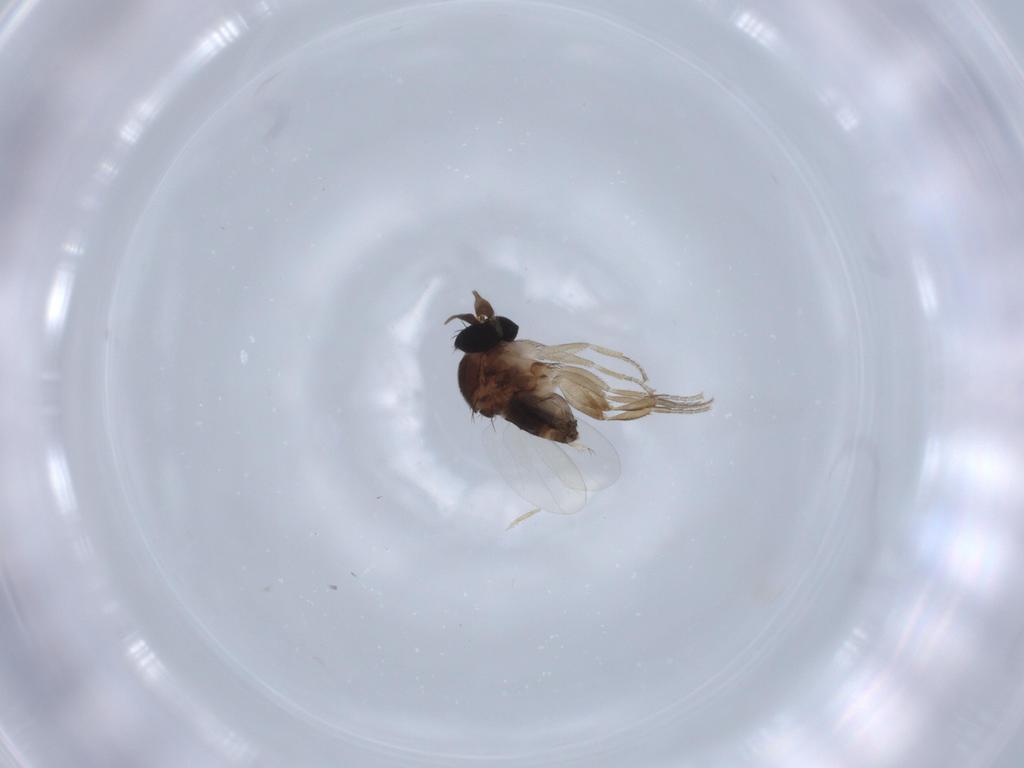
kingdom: Animalia
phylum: Arthropoda
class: Insecta
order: Diptera
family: Phoridae
